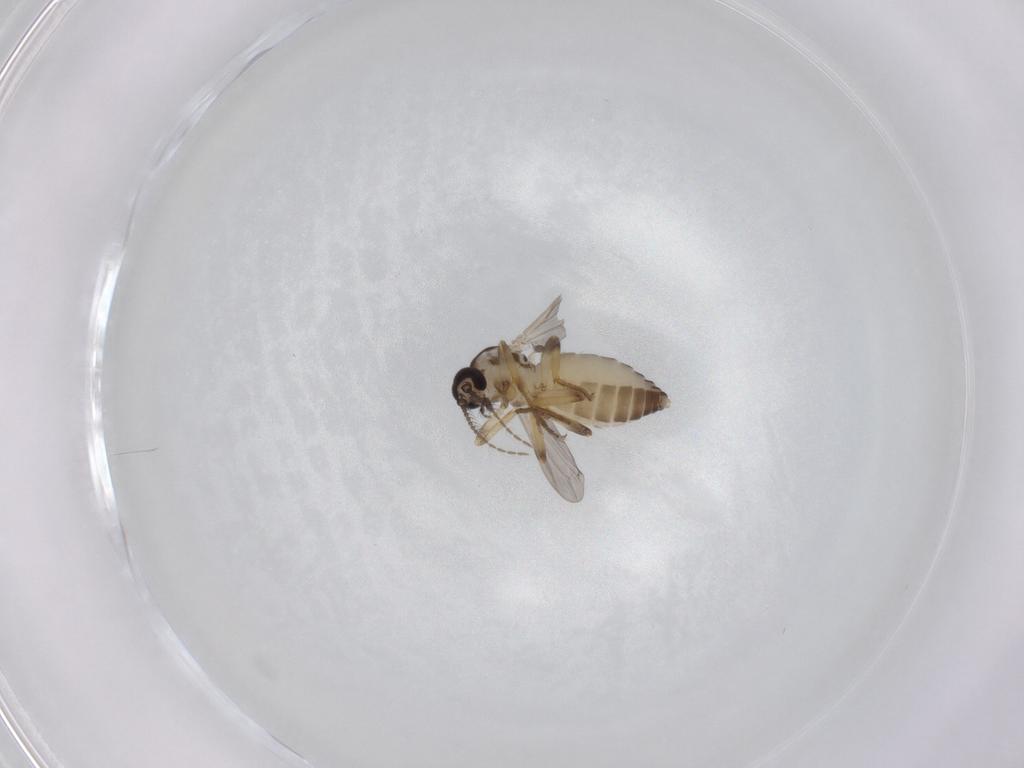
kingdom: Animalia
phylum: Arthropoda
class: Insecta
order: Diptera
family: Ceratopogonidae
